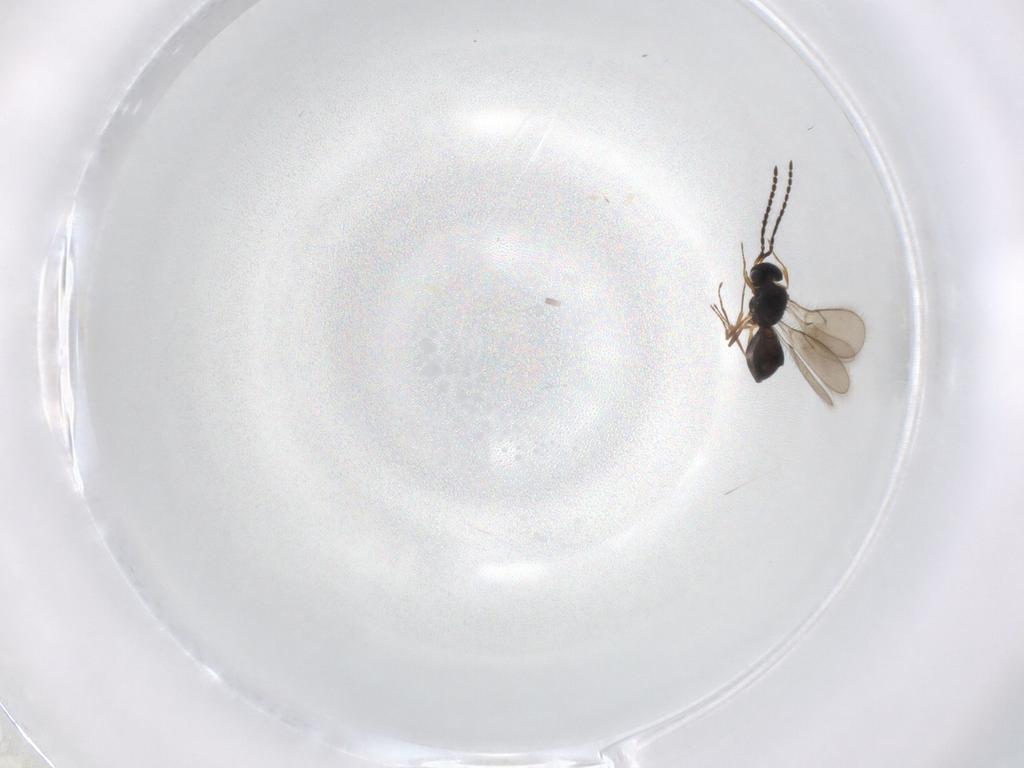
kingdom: Animalia
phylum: Arthropoda
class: Insecta
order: Hymenoptera
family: Scelionidae
